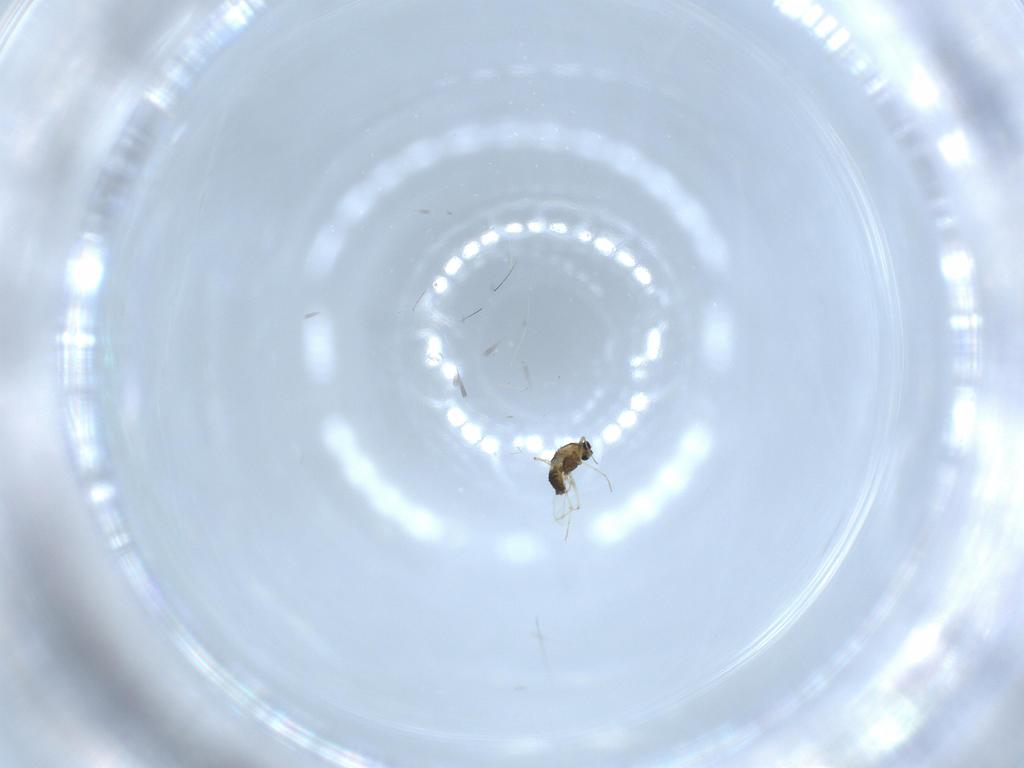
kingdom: Animalia
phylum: Arthropoda
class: Insecta
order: Diptera
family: Chironomidae
